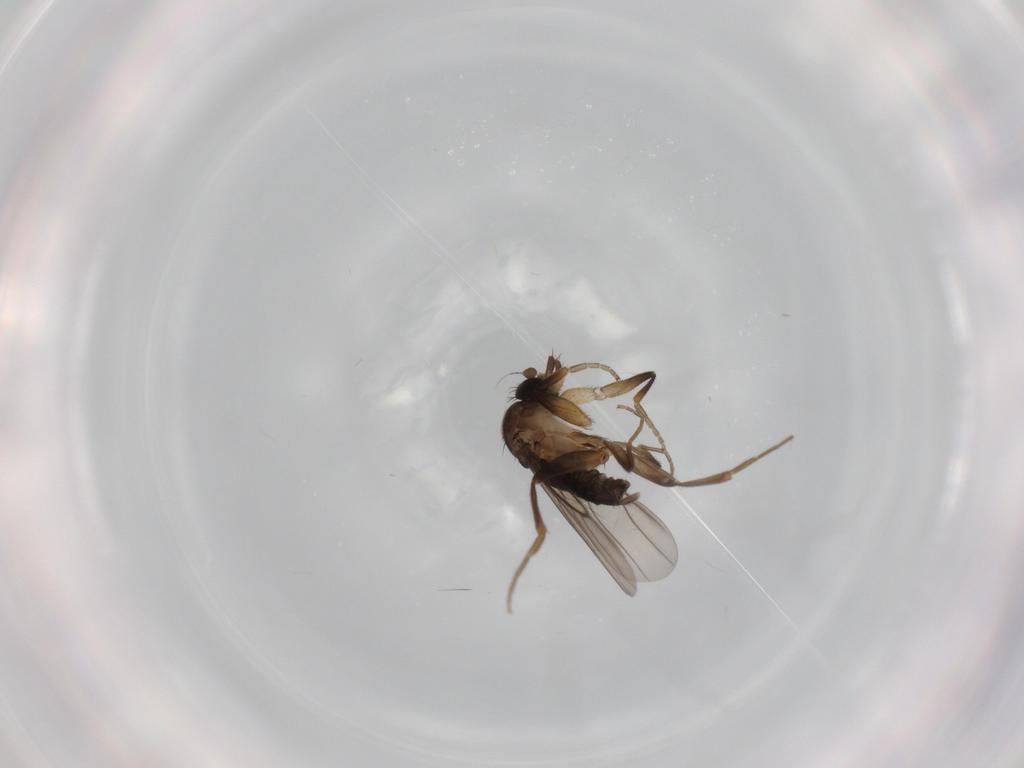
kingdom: Animalia
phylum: Arthropoda
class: Insecta
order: Diptera
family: Phoridae
